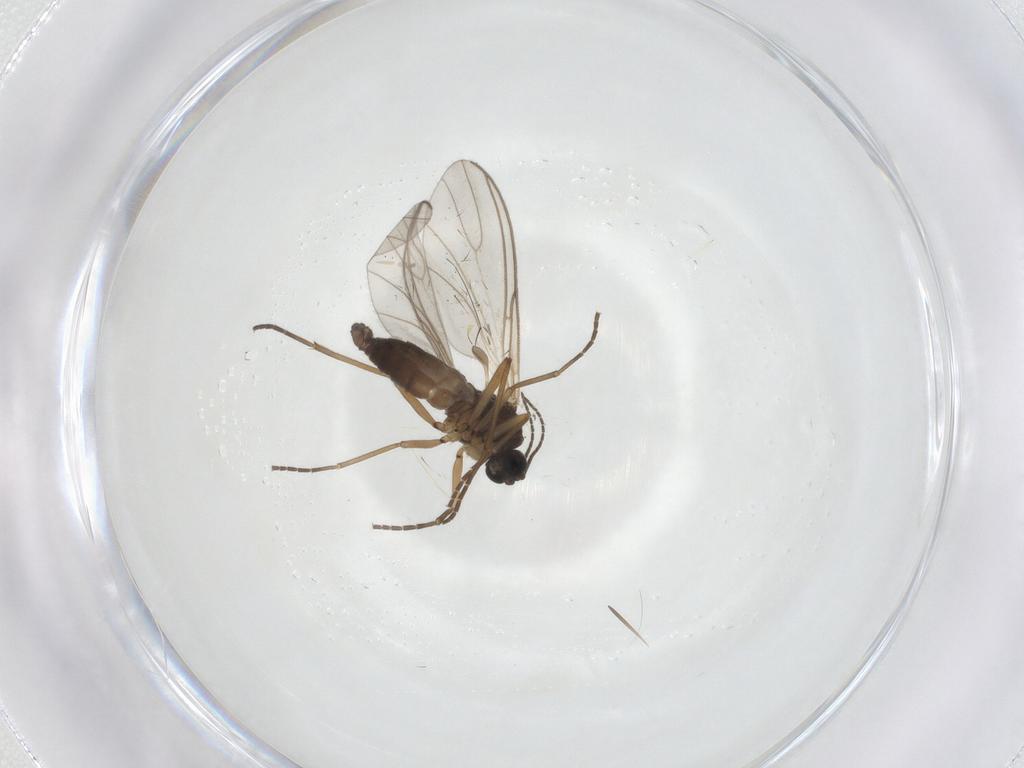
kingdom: Animalia
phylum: Arthropoda
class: Insecta
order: Diptera
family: Sciaridae
